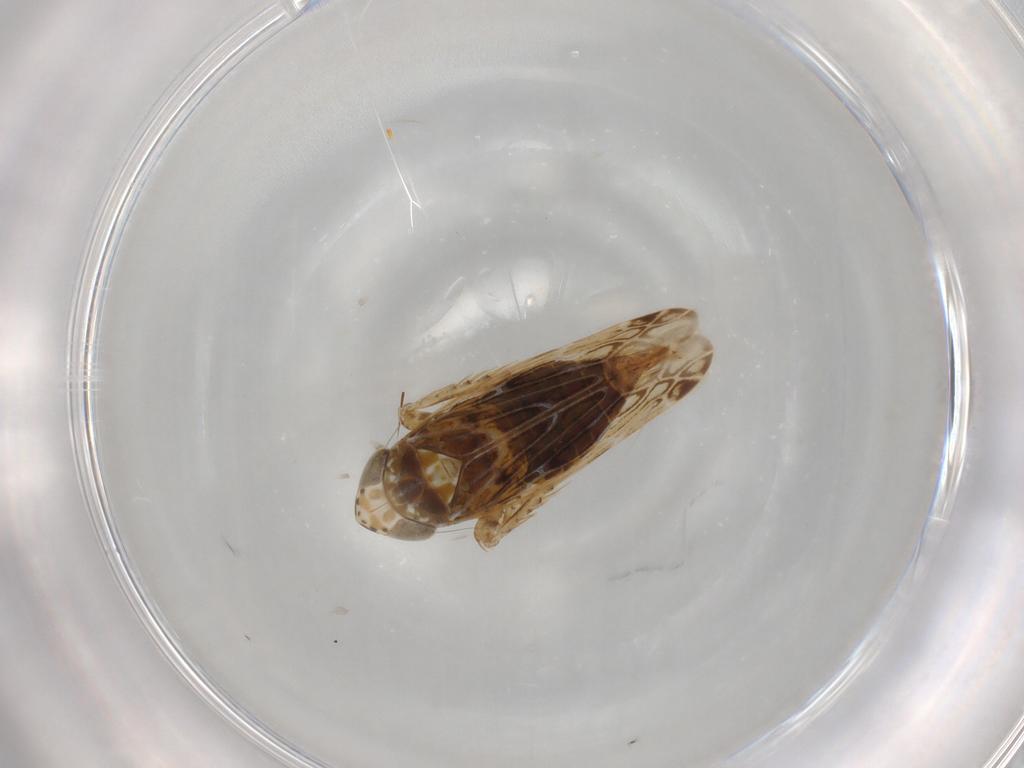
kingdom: Animalia
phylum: Arthropoda
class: Insecta
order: Hemiptera
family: Cicadellidae
